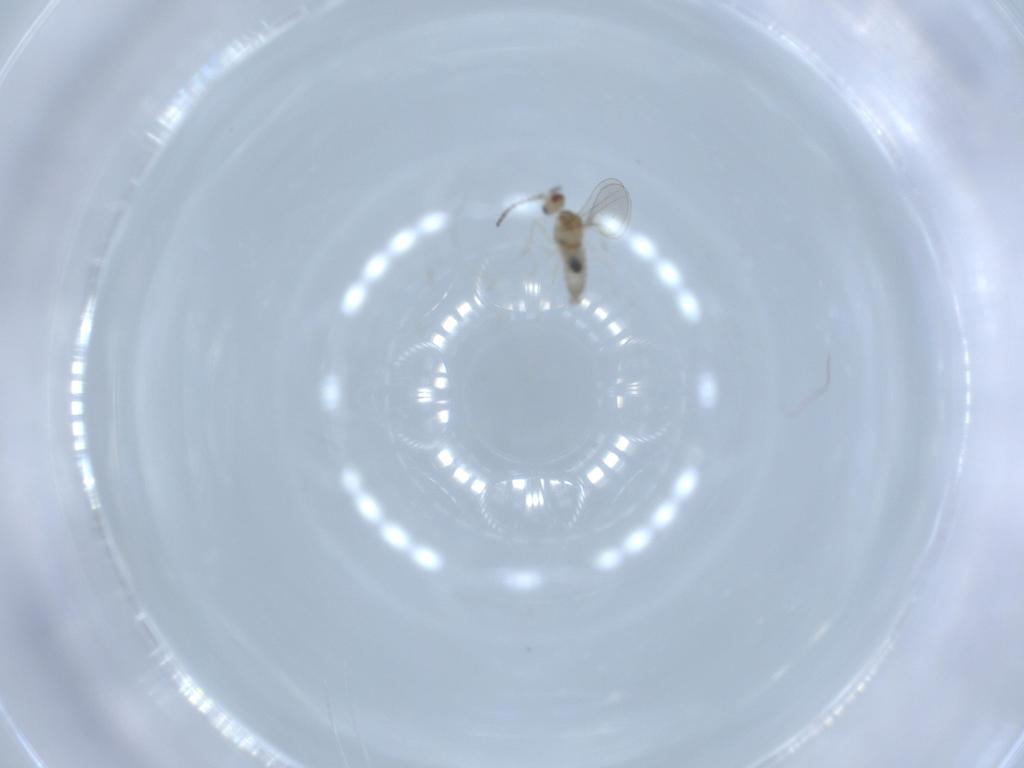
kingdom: Animalia
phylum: Arthropoda
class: Insecta
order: Diptera
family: Cecidomyiidae
